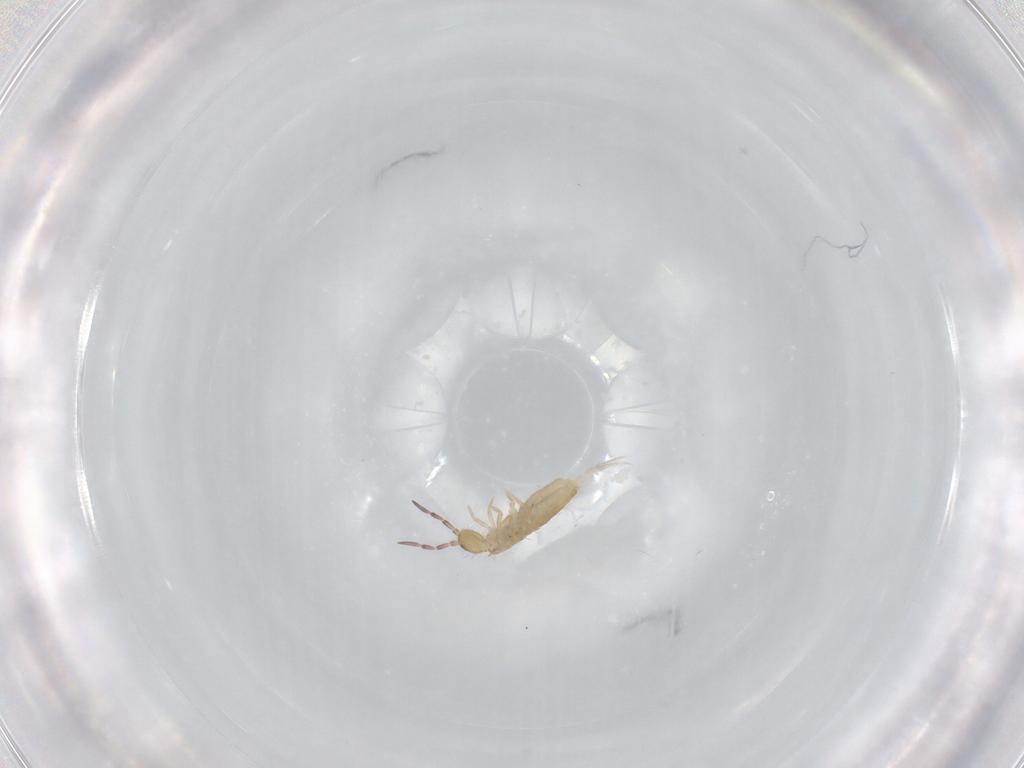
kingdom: Animalia
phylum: Arthropoda
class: Collembola
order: Entomobryomorpha
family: Entomobryidae
